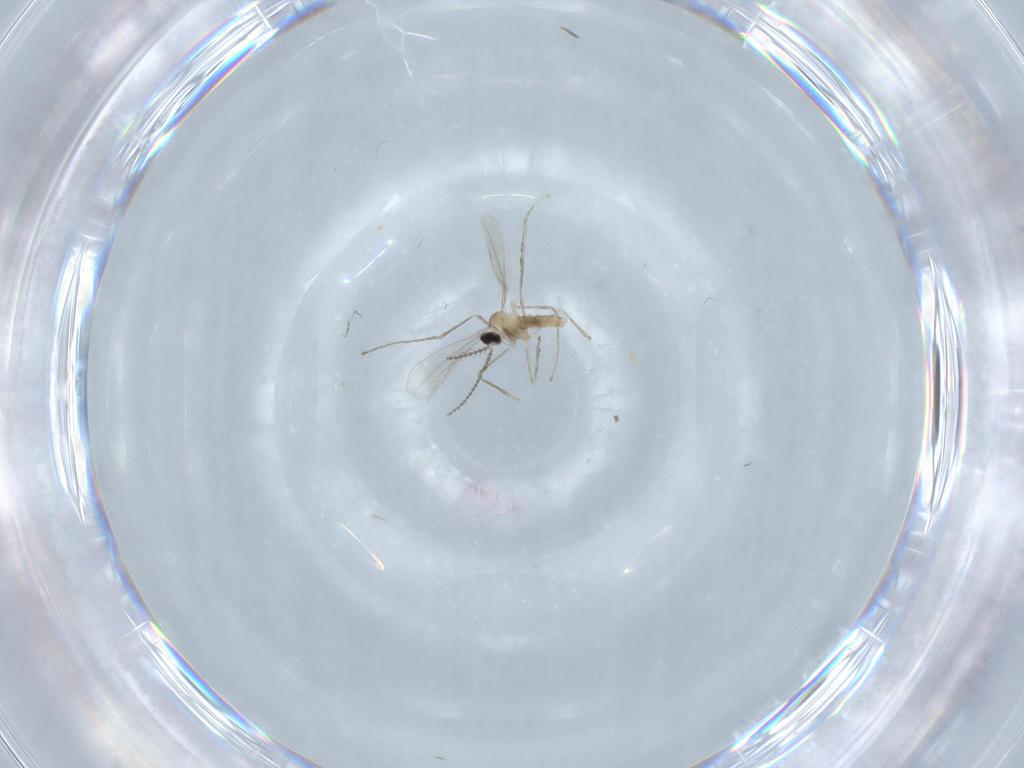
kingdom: Animalia
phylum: Arthropoda
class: Insecta
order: Diptera
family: Cecidomyiidae
